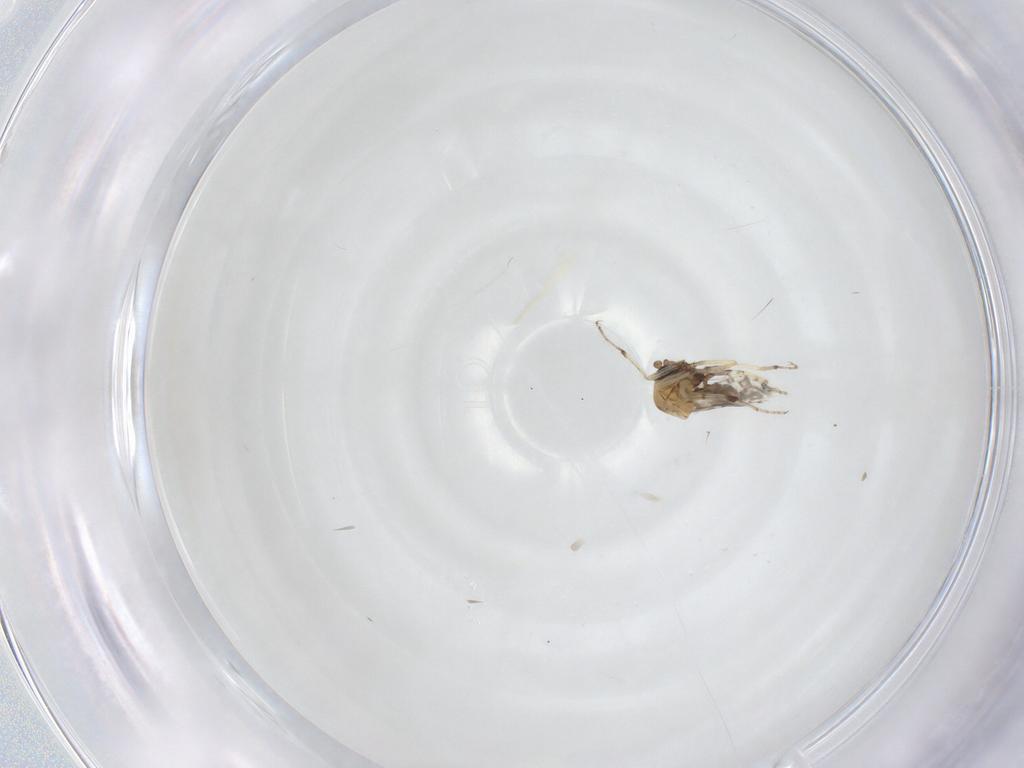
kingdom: Animalia
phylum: Arthropoda
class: Insecta
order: Diptera
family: Ceratopogonidae
